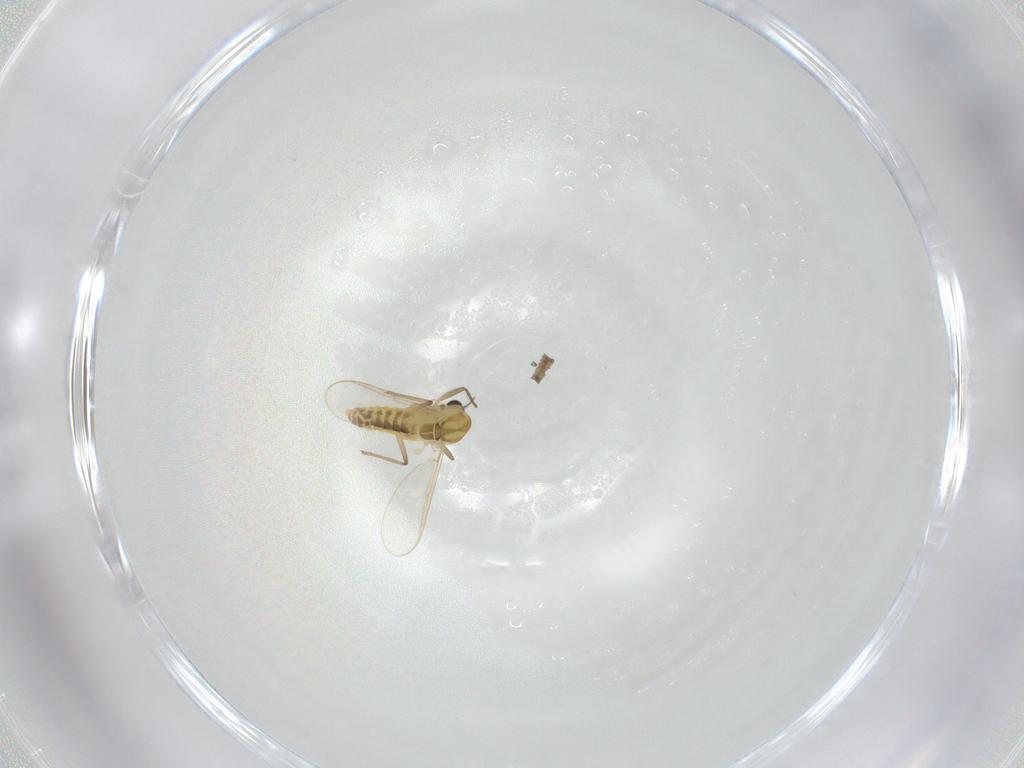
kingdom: Animalia
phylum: Arthropoda
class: Insecta
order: Diptera
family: Chironomidae
